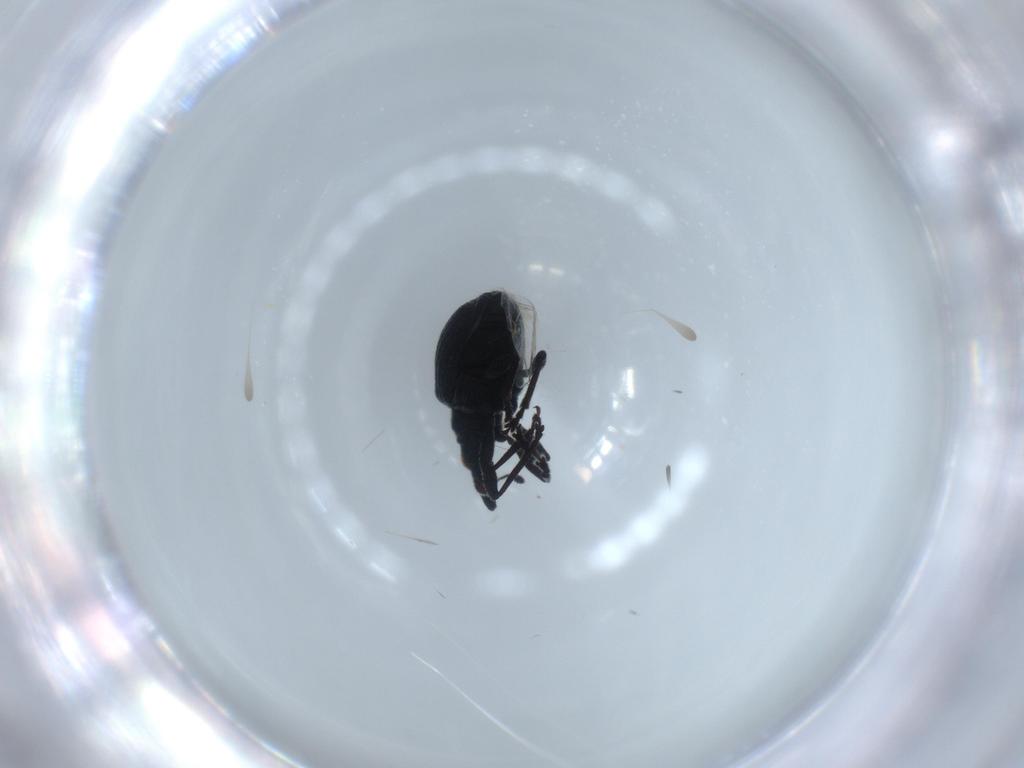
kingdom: Animalia
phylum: Arthropoda
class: Insecta
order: Coleoptera
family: Brentidae
